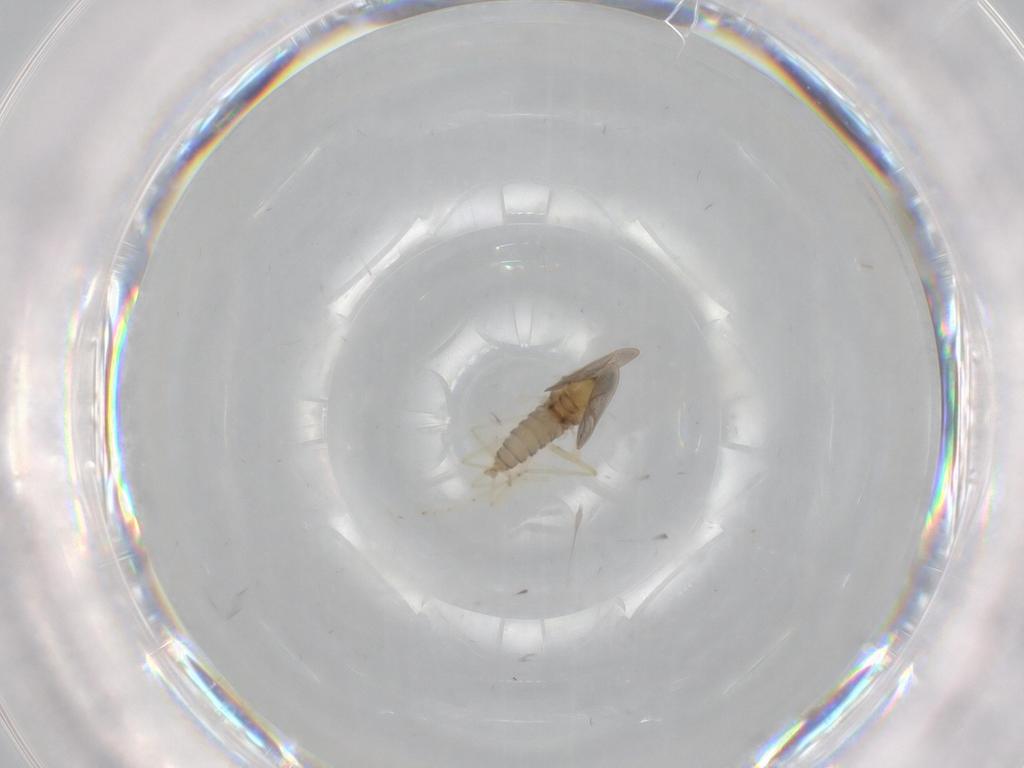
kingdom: Animalia
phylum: Arthropoda
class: Insecta
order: Diptera
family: Cecidomyiidae
